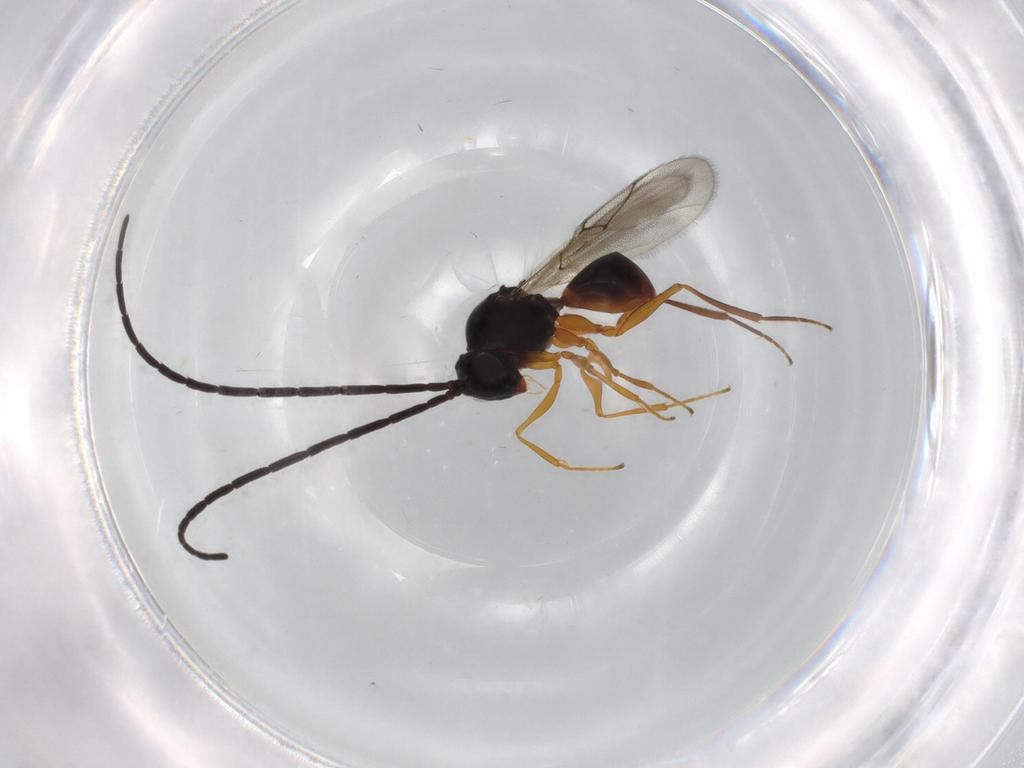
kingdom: Animalia
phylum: Arthropoda
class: Insecta
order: Hymenoptera
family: Figitidae
